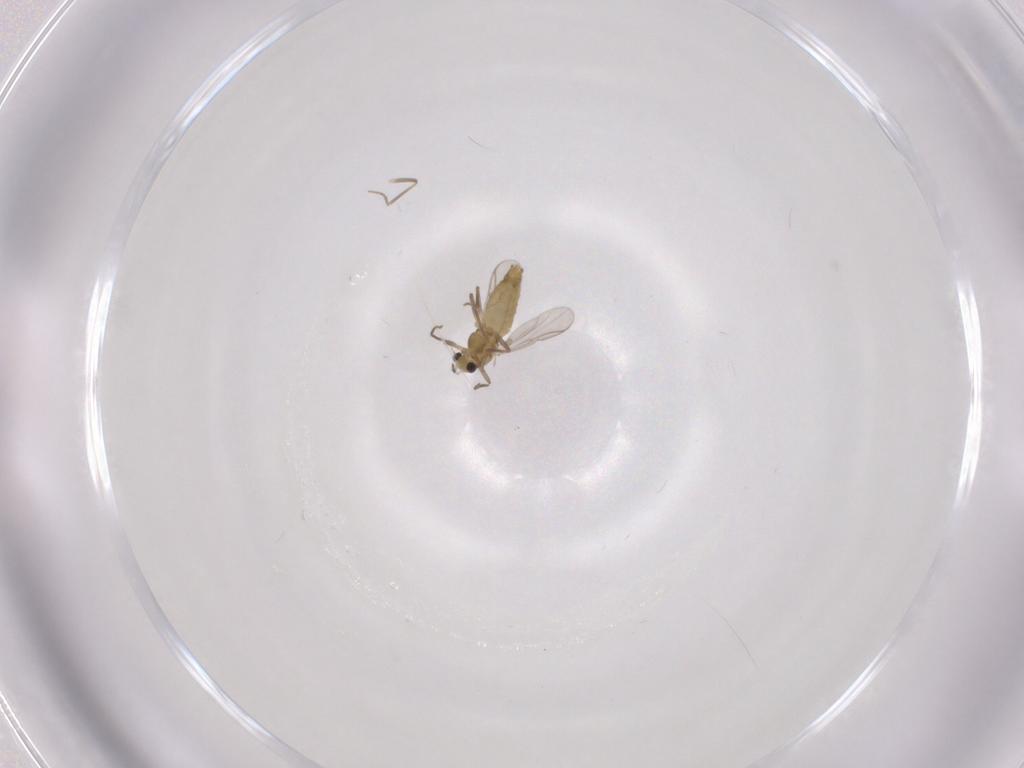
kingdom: Animalia
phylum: Arthropoda
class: Insecta
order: Diptera
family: Chironomidae
